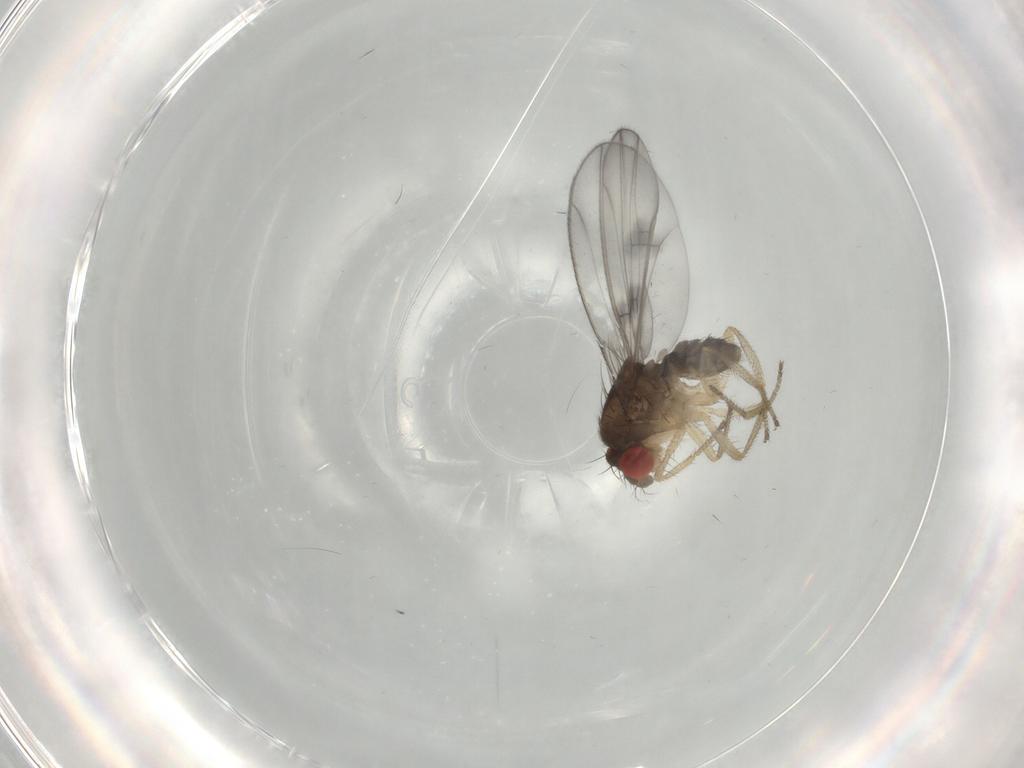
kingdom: Animalia
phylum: Arthropoda
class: Insecta
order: Diptera
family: Drosophilidae
